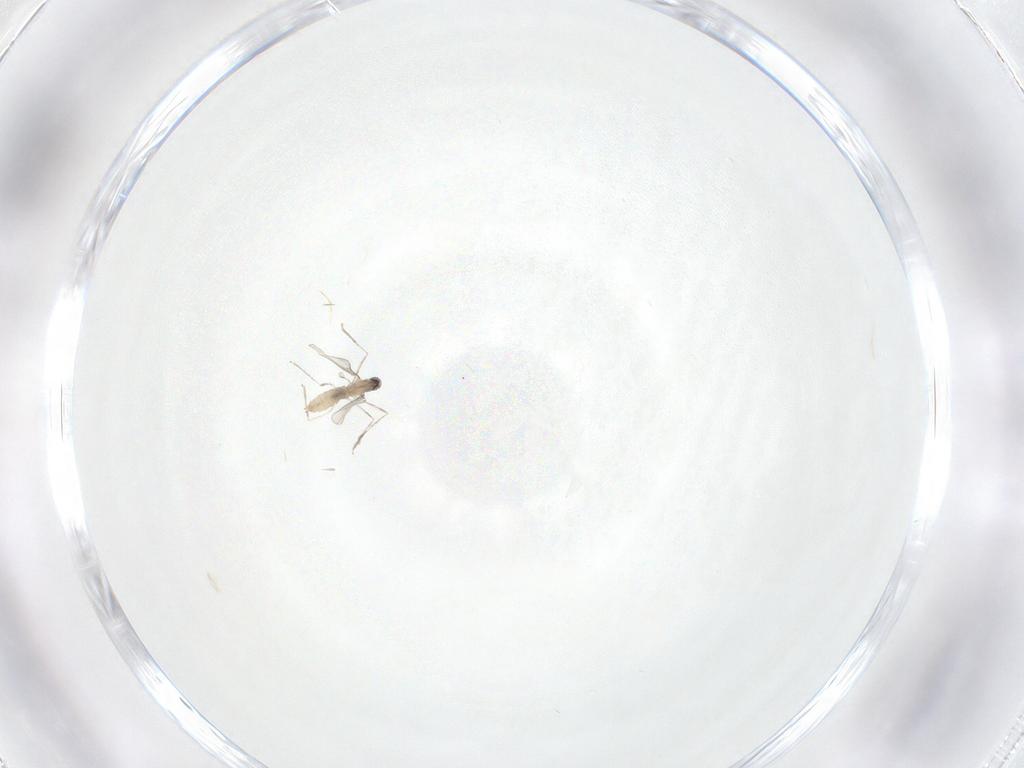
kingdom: Animalia
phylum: Arthropoda
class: Insecta
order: Diptera
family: Cecidomyiidae
